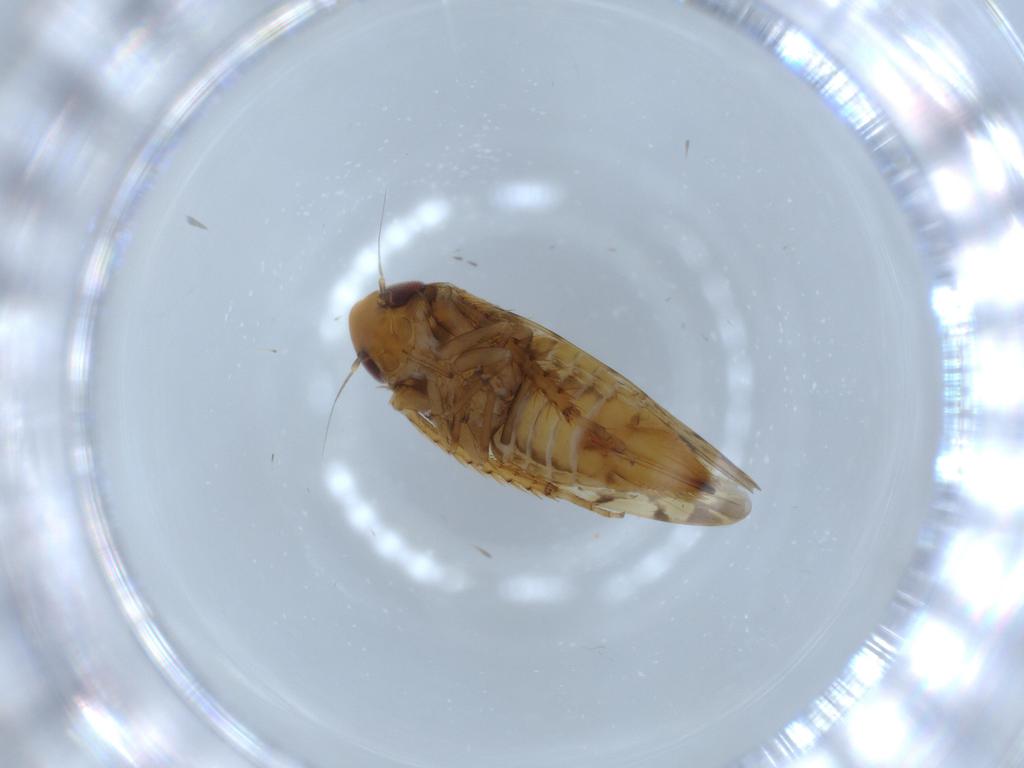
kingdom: Animalia
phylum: Arthropoda
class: Insecta
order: Hemiptera
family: Cicadellidae
